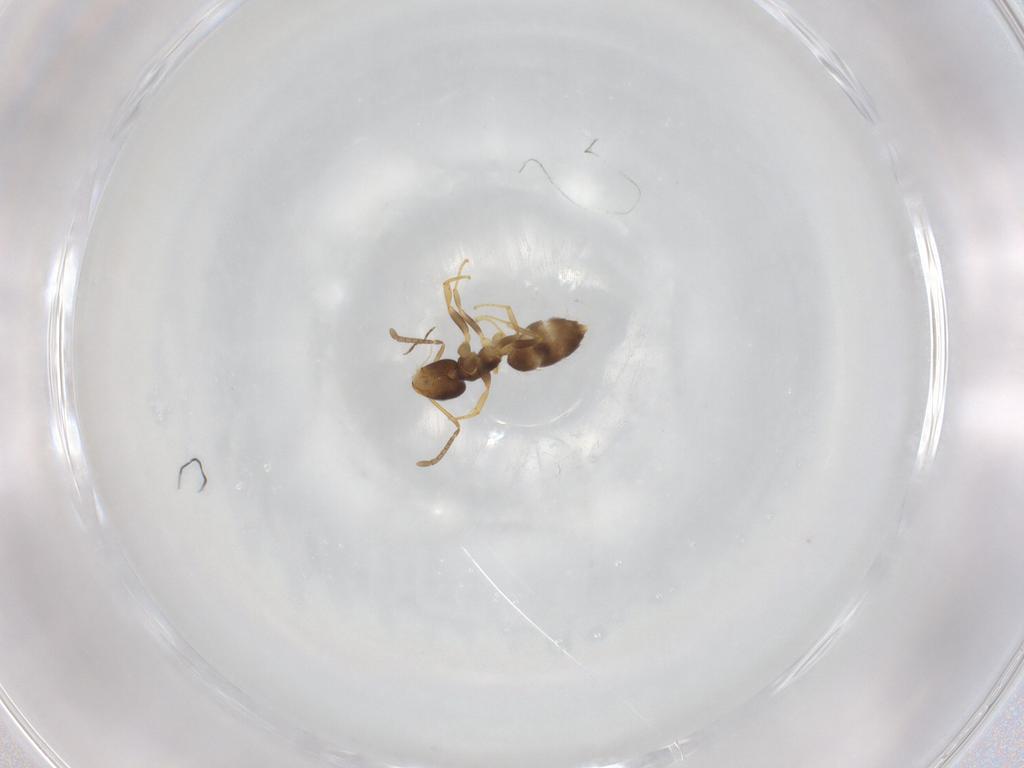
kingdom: Animalia
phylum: Arthropoda
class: Insecta
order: Hymenoptera
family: Formicidae
